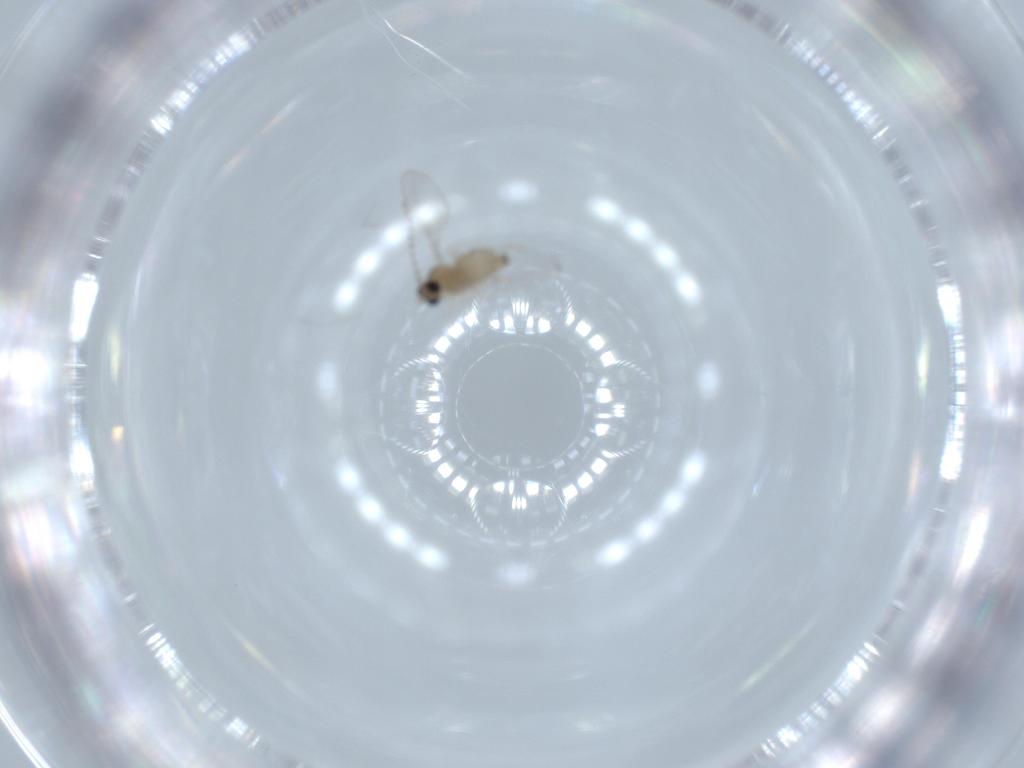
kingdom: Animalia
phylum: Arthropoda
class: Insecta
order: Diptera
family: Cecidomyiidae
